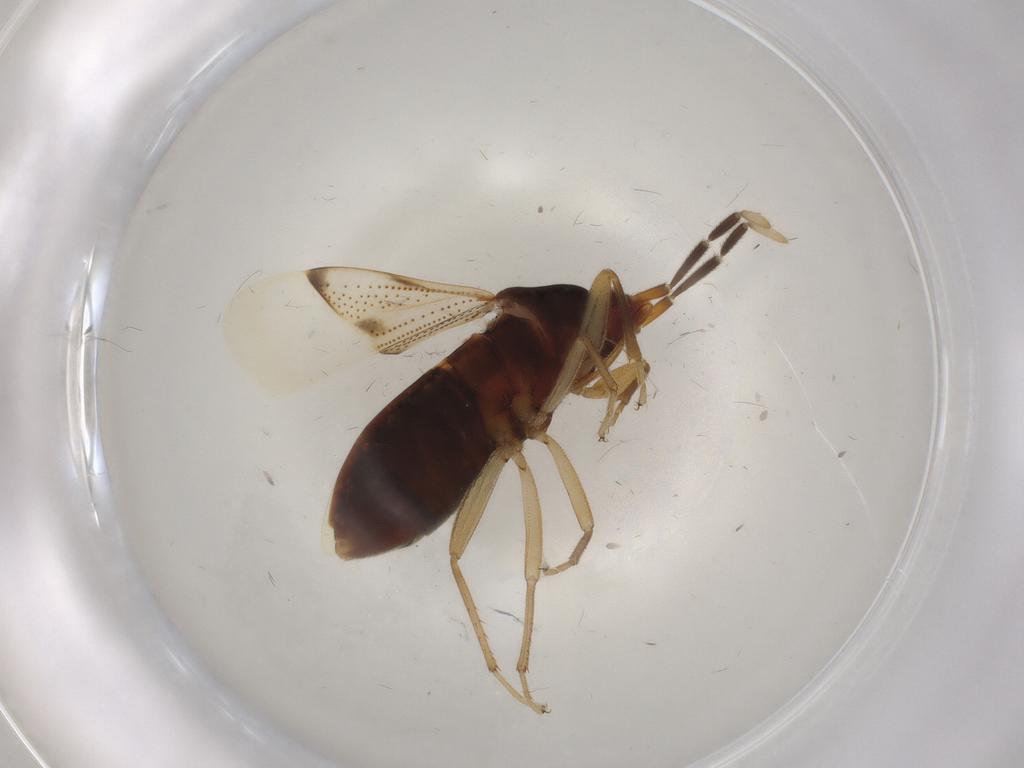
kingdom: Animalia
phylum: Arthropoda
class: Insecta
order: Hemiptera
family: Rhyparochromidae
